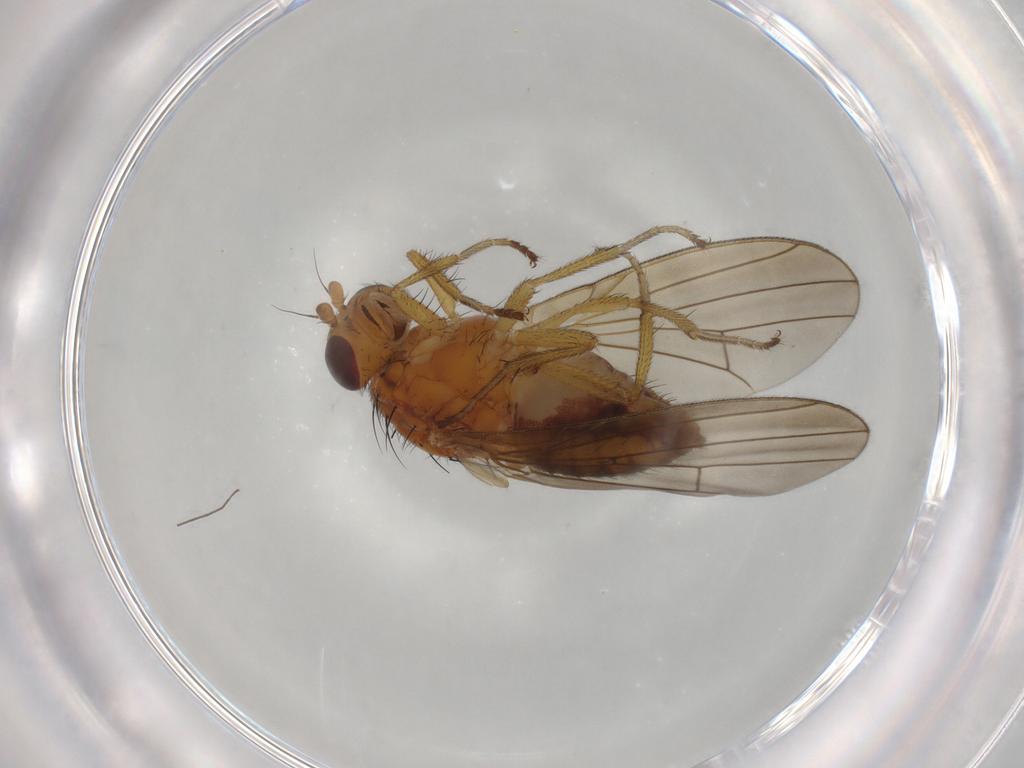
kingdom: Animalia
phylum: Arthropoda
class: Insecta
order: Diptera
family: Lauxaniidae
